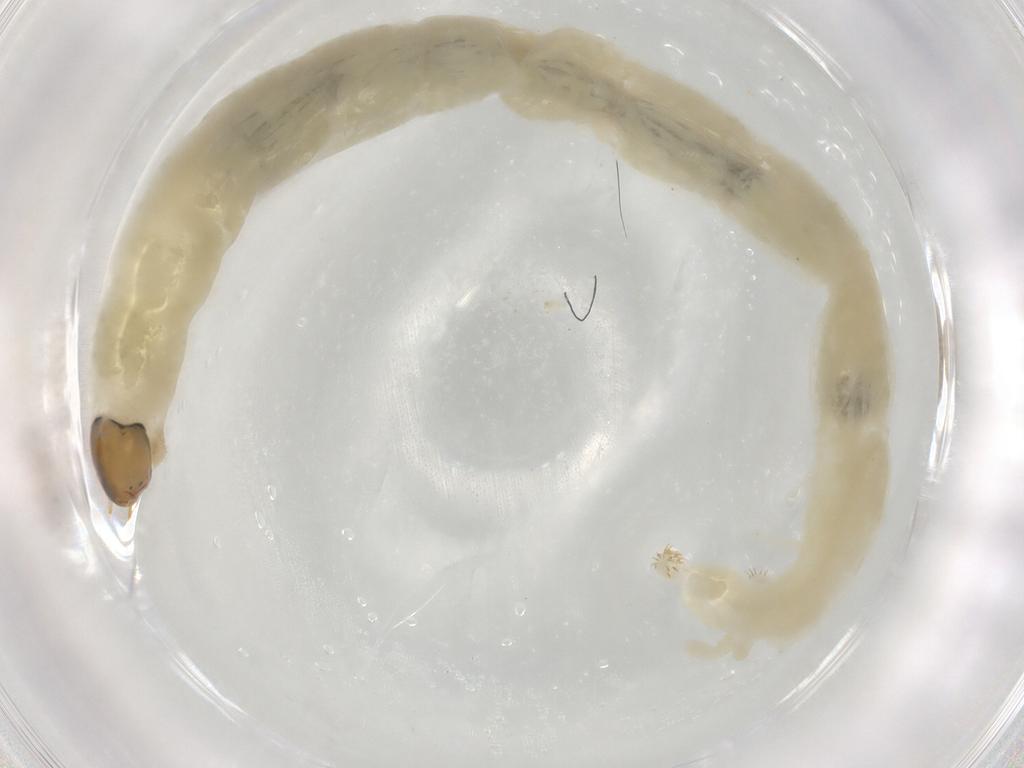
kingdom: Animalia
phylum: Arthropoda
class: Insecta
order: Diptera
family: Chironomidae
